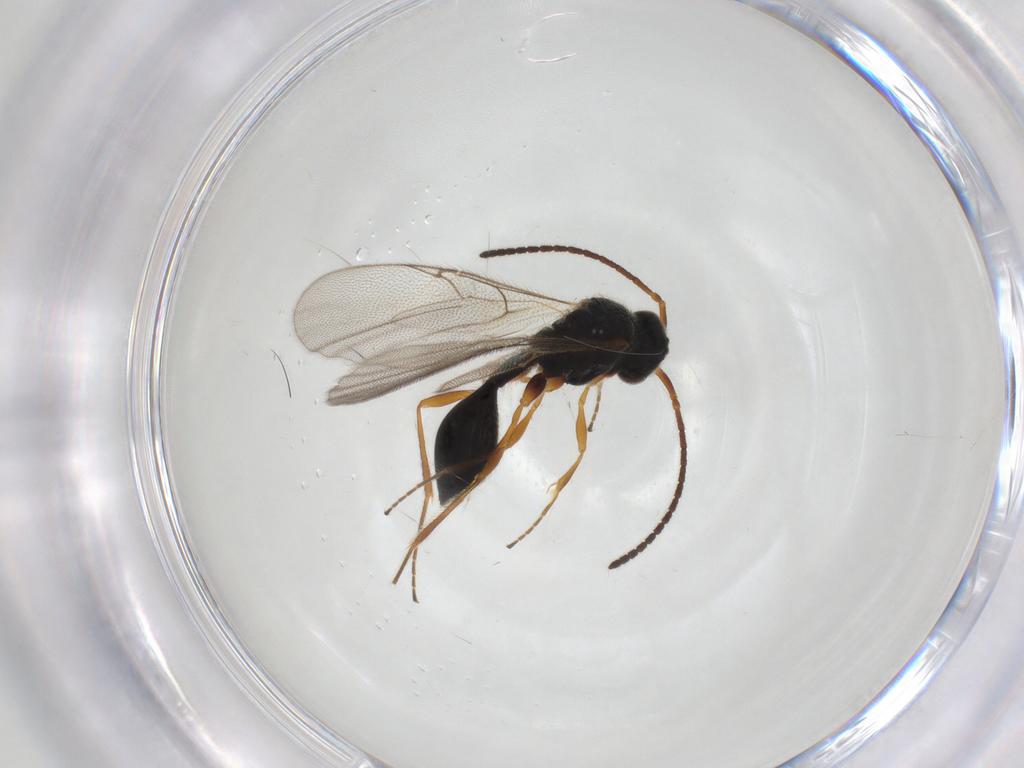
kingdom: Animalia
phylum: Arthropoda
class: Insecta
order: Hymenoptera
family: Diapriidae
